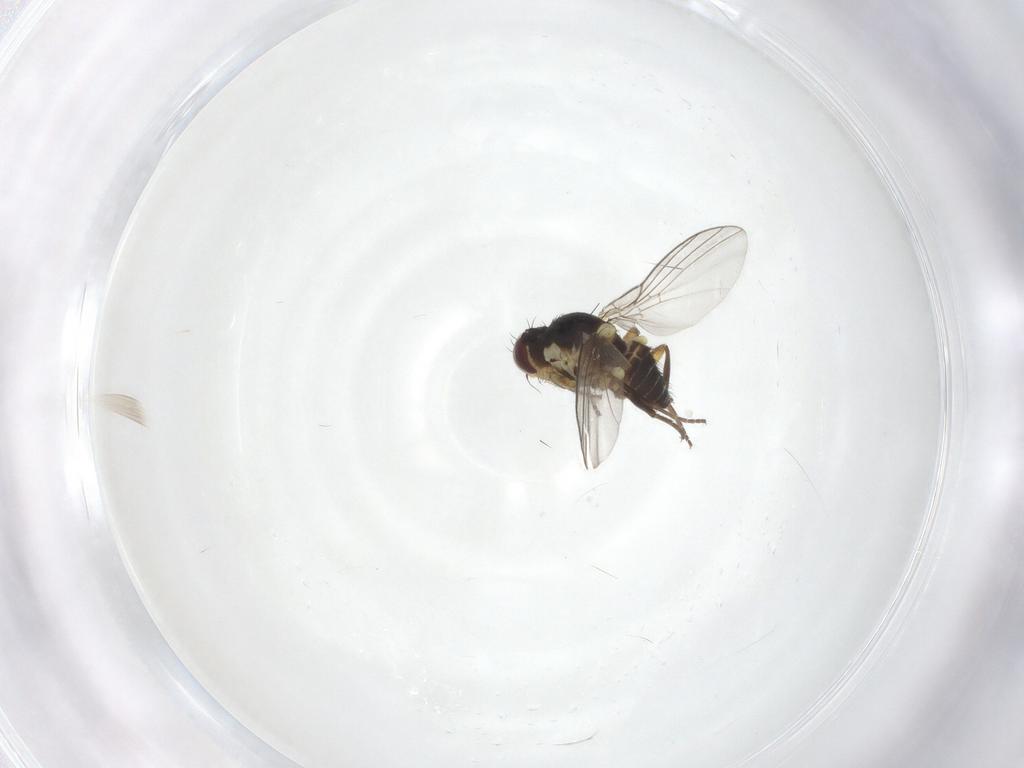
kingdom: Animalia
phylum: Arthropoda
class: Insecta
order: Diptera
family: Agromyzidae
